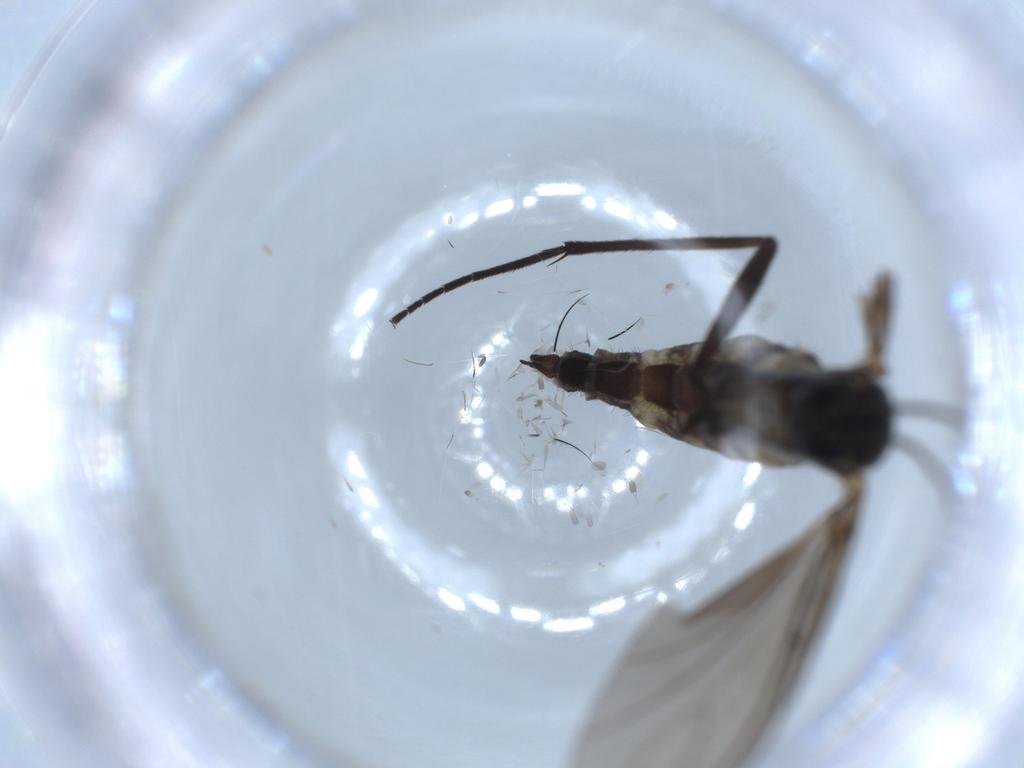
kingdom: Animalia
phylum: Arthropoda
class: Insecta
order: Diptera
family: Sciaridae
